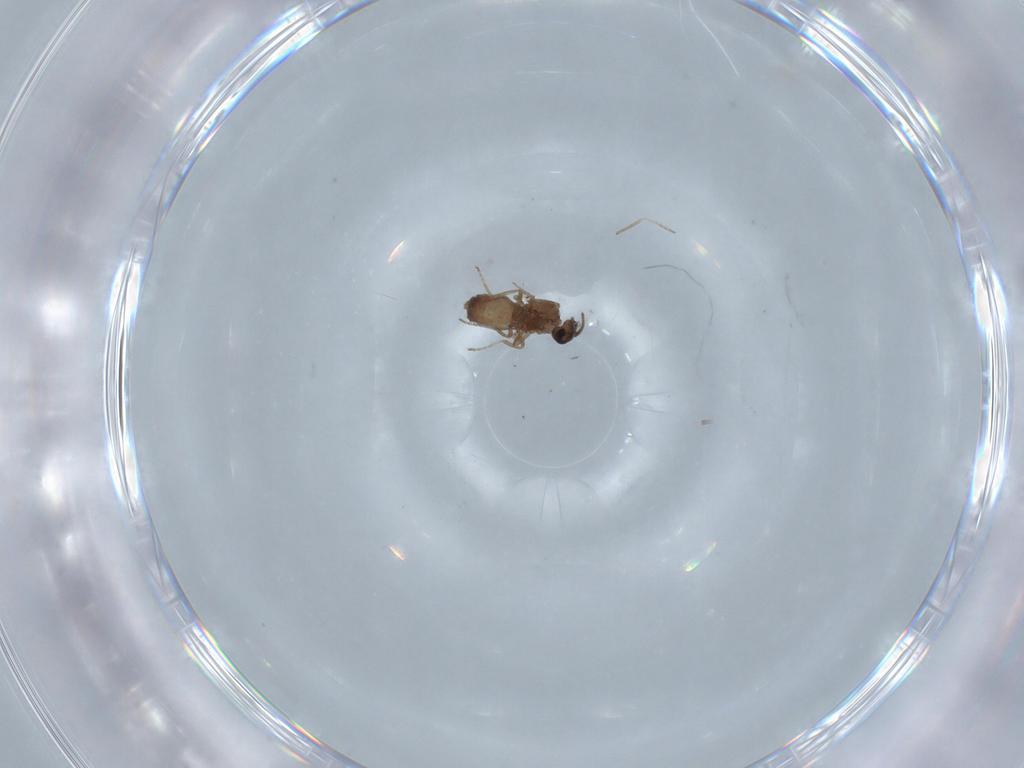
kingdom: Animalia
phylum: Arthropoda
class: Insecta
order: Diptera
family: Ceratopogonidae
